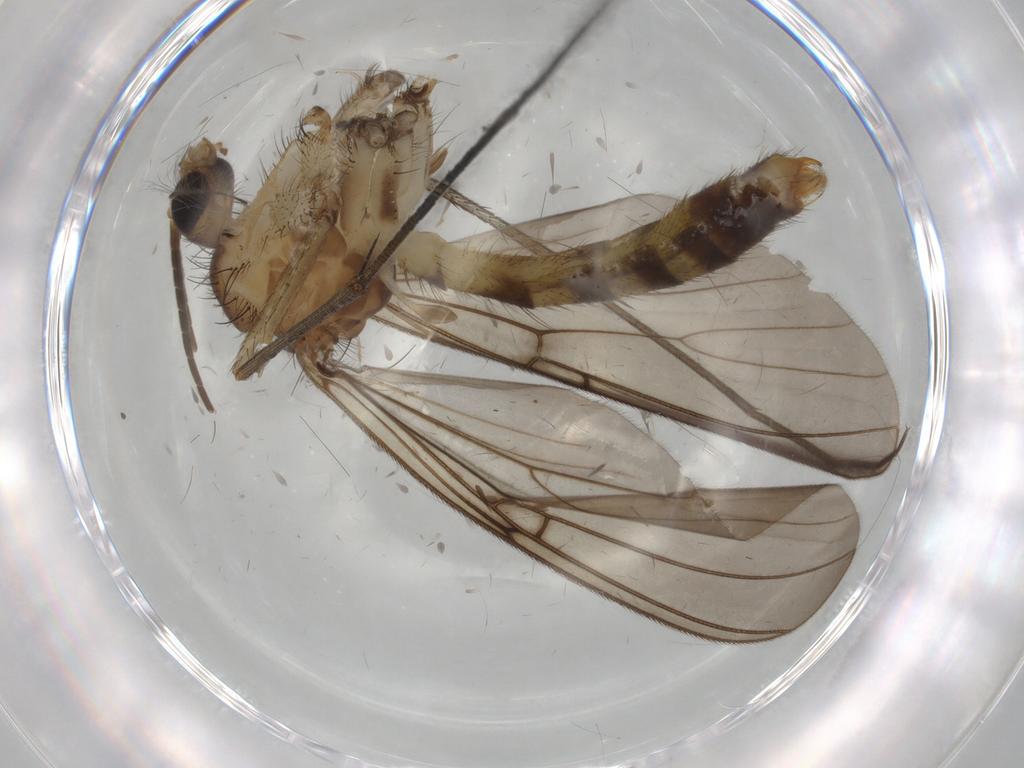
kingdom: Animalia
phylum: Arthropoda
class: Insecta
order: Diptera
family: Mycetophilidae
